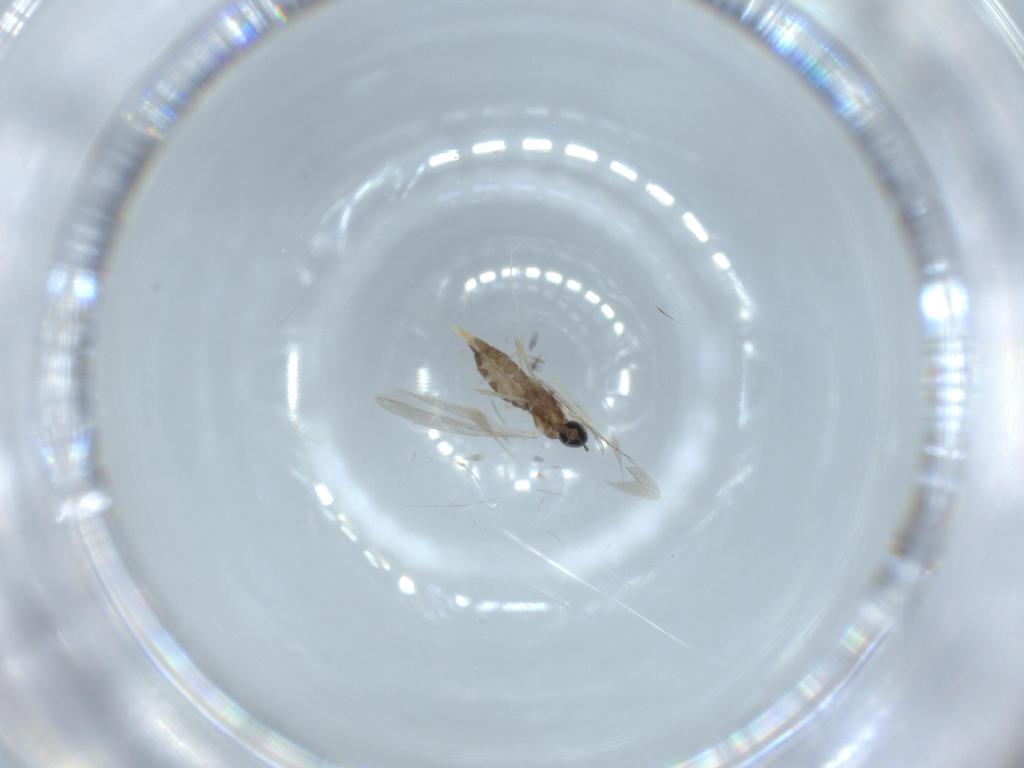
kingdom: Animalia
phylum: Arthropoda
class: Insecta
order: Diptera
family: Cecidomyiidae
